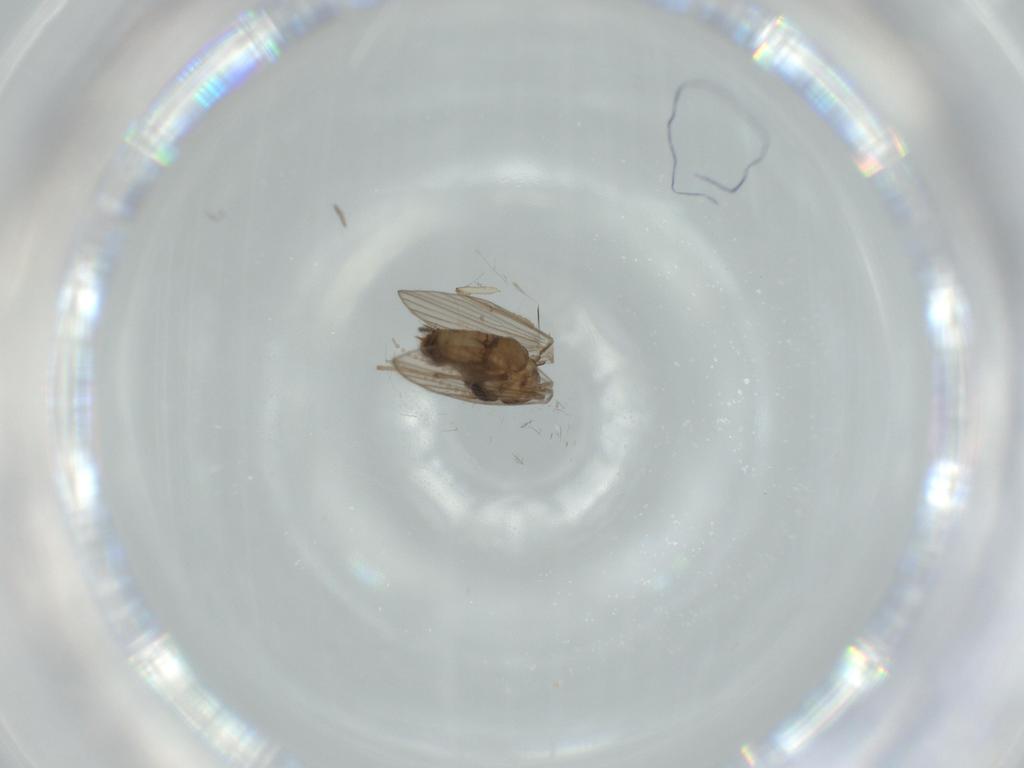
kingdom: Animalia
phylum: Arthropoda
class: Insecta
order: Diptera
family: Psychodidae
